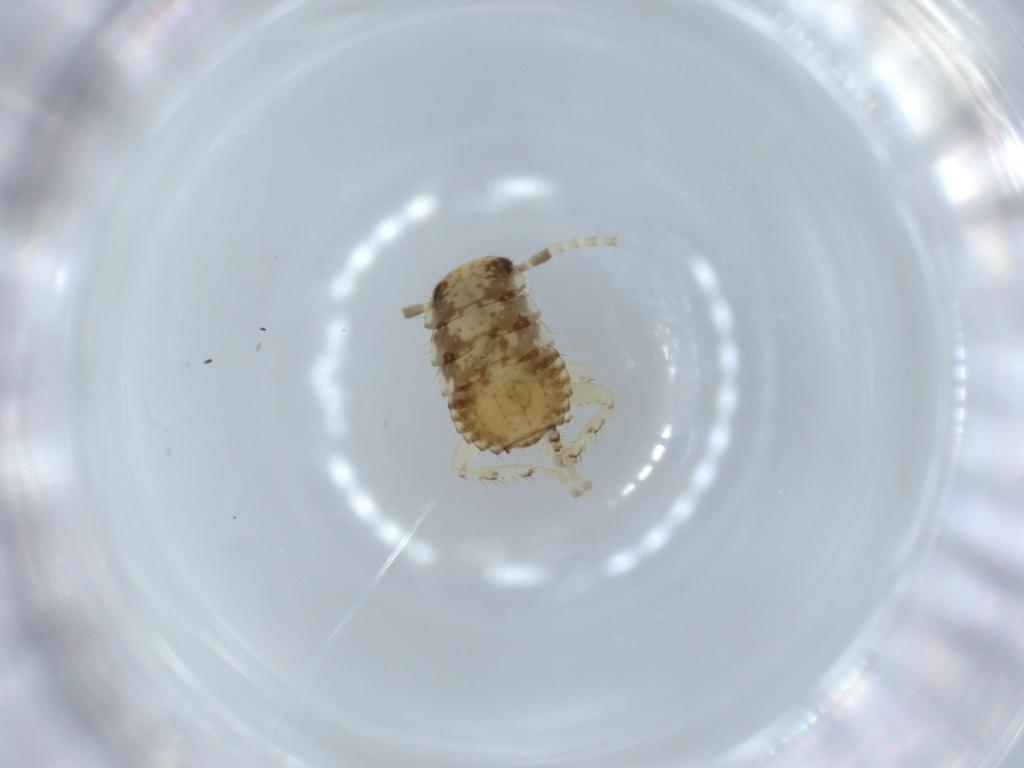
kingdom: Animalia
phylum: Arthropoda
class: Insecta
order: Blattodea
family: Ectobiidae
